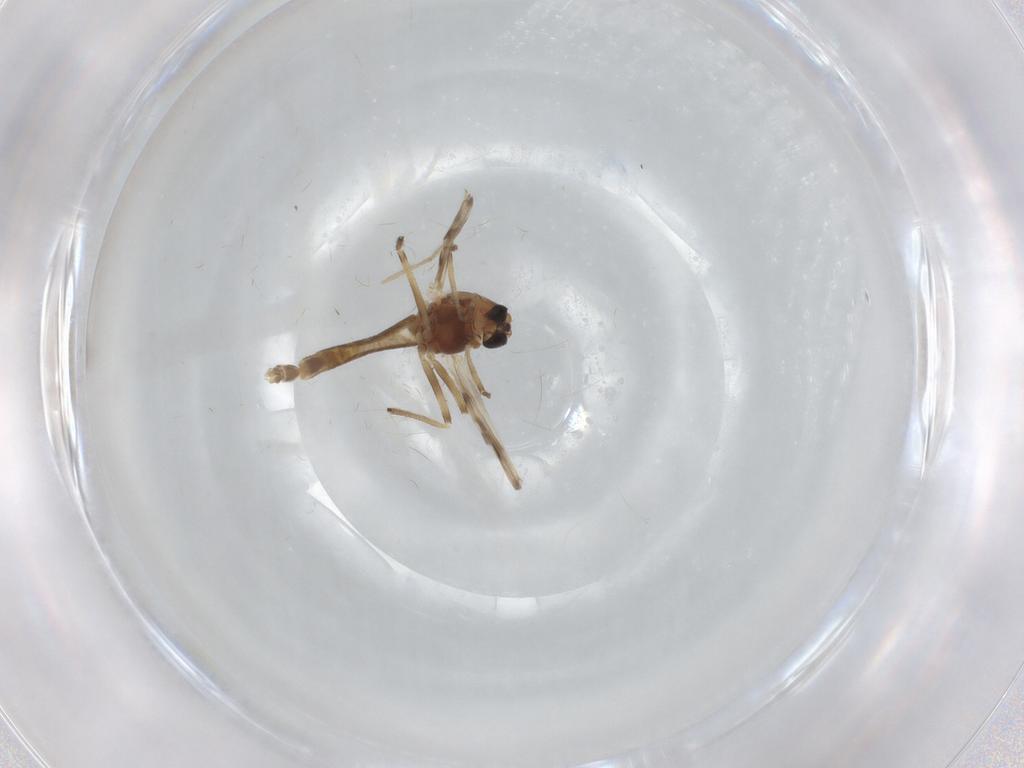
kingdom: Animalia
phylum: Arthropoda
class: Insecta
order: Diptera
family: Chironomidae
